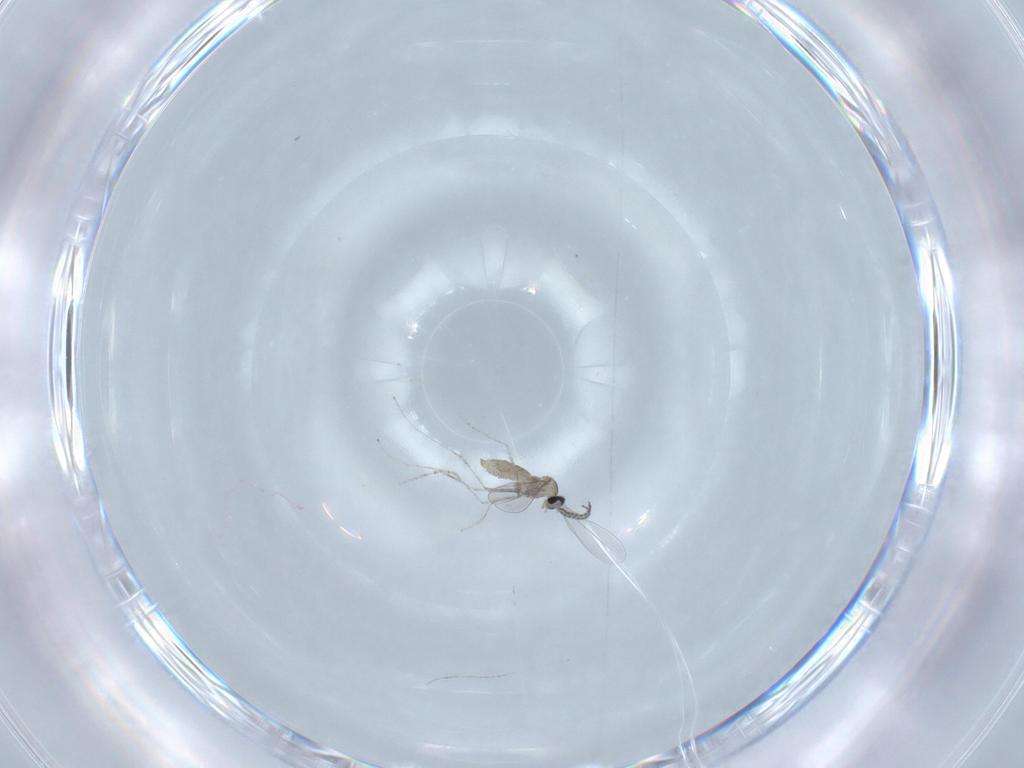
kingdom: Animalia
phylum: Arthropoda
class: Insecta
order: Diptera
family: Cecidomyiidae
